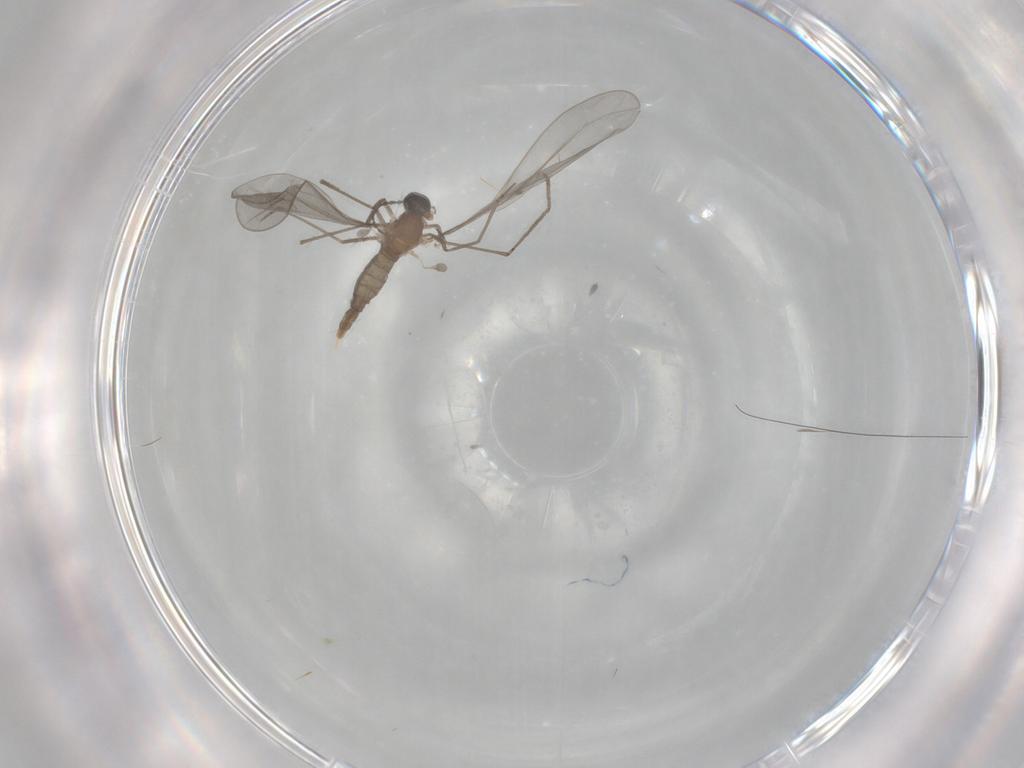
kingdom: Animalia
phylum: Arthropoda
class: Insecta
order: Diptera
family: Cecidomyiidae
